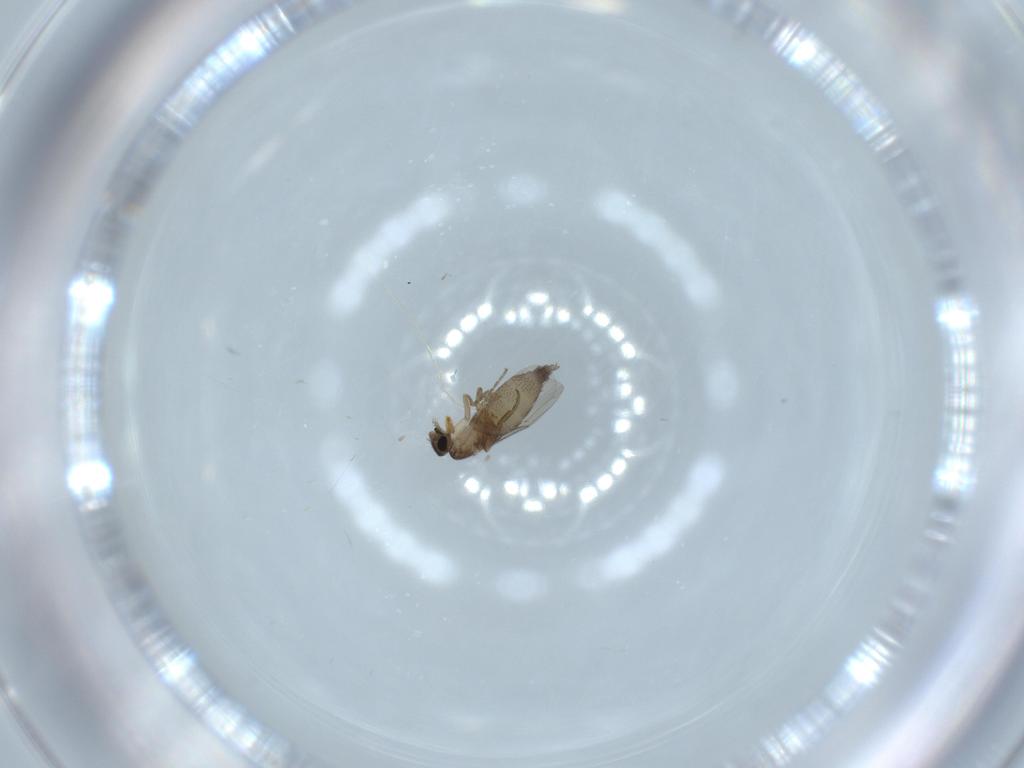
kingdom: Animalia
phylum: Arthropoda
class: Insecta
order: Diptera
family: Phoridae
